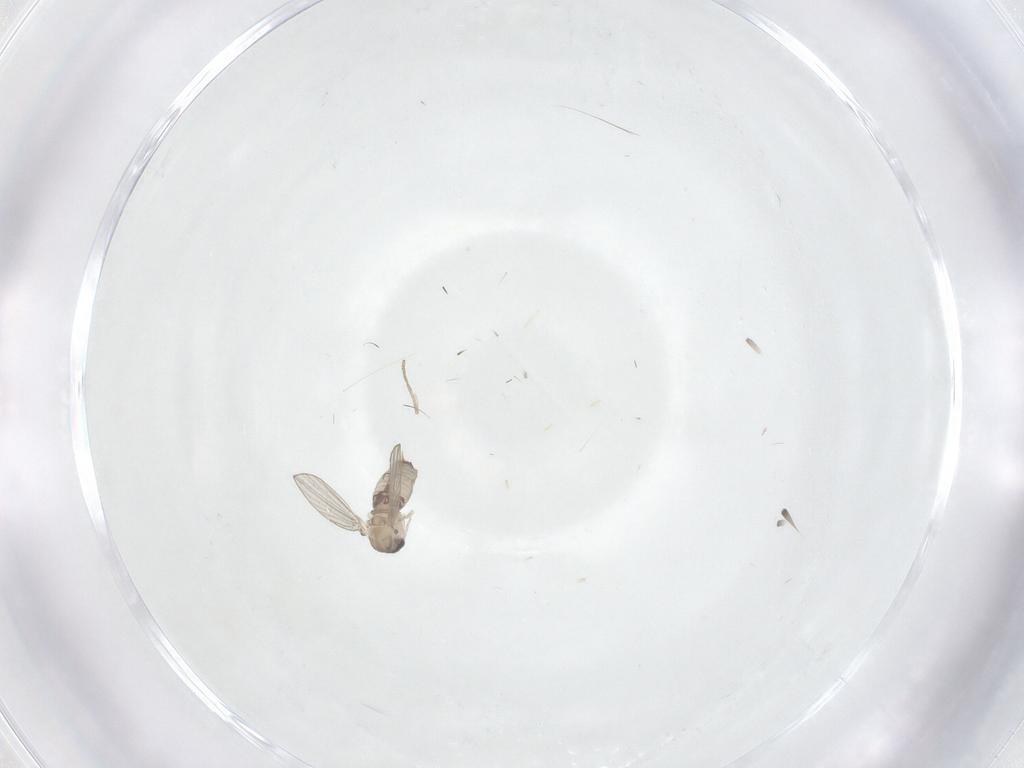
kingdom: Animalia
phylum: Arthropoda
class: Insecta
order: Diptera
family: Psychodidae
